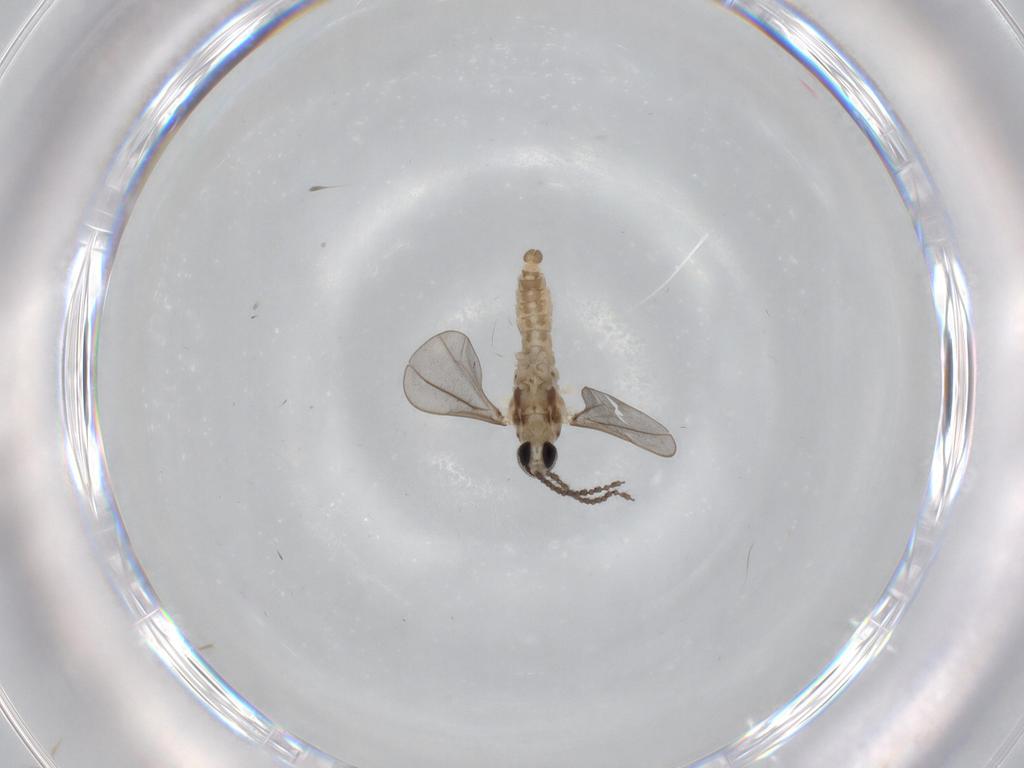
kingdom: Animalia
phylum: Arthropoda
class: Insecta
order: Diptera
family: Cecidomyiidae
